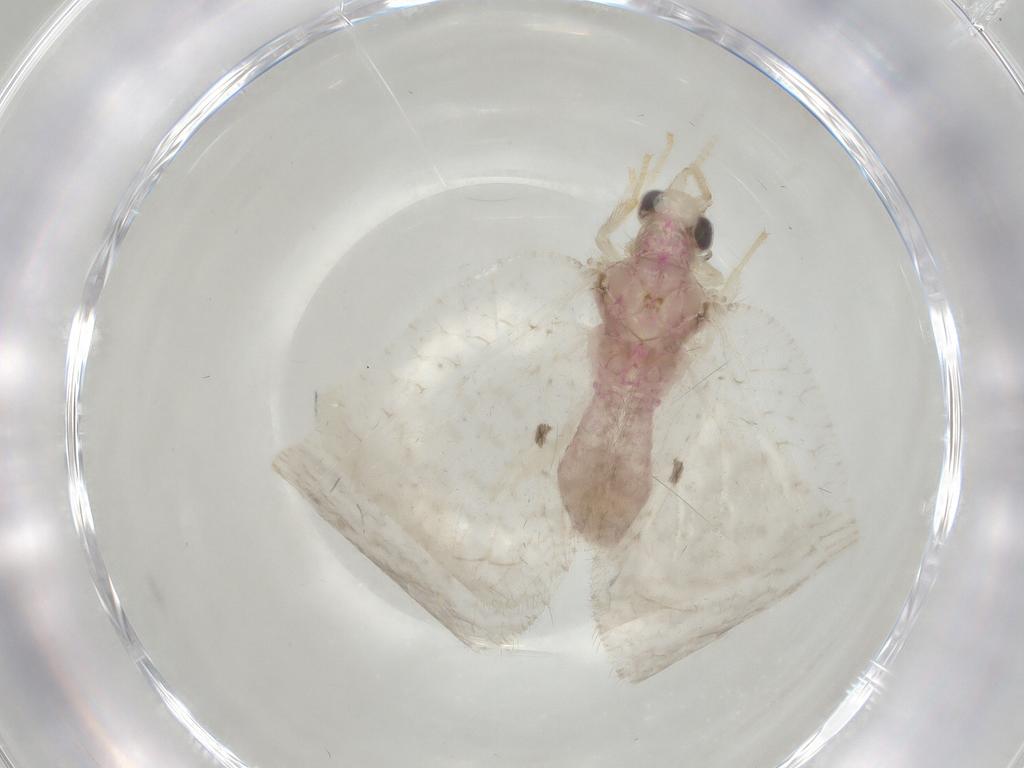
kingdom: Animalia
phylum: Arthropoda
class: Insecta
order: Neuroptera
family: Hemerobiidae
